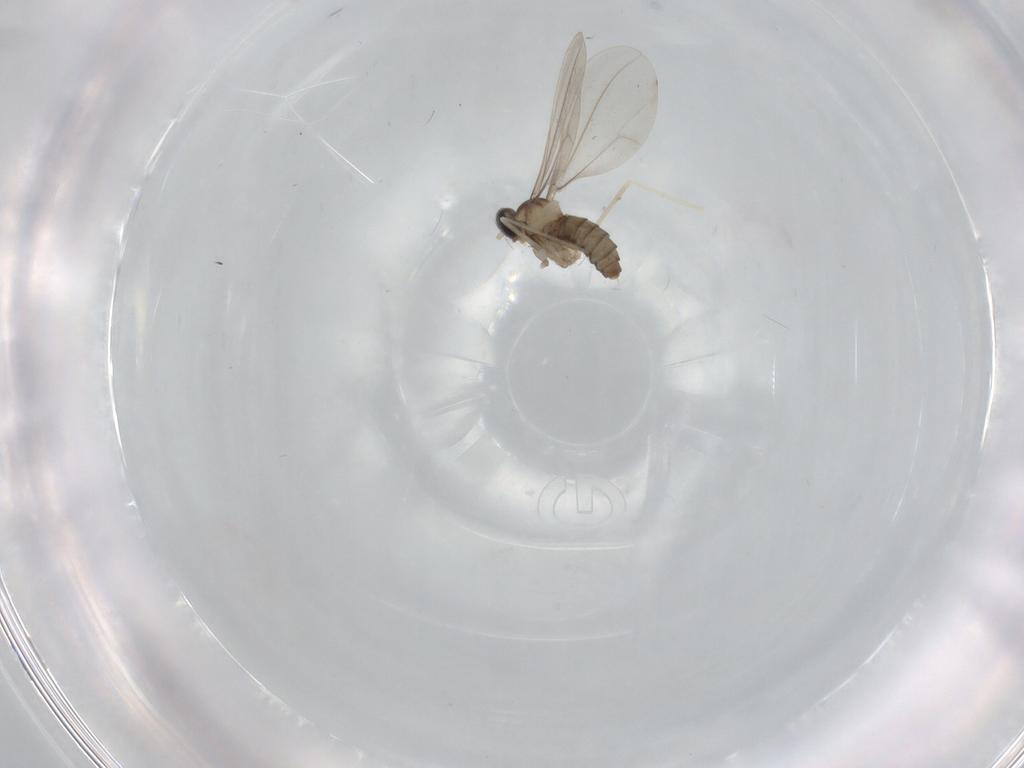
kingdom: Animalia
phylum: Arthropoda
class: Insecta
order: Diptera
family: Cecidomyiidae
